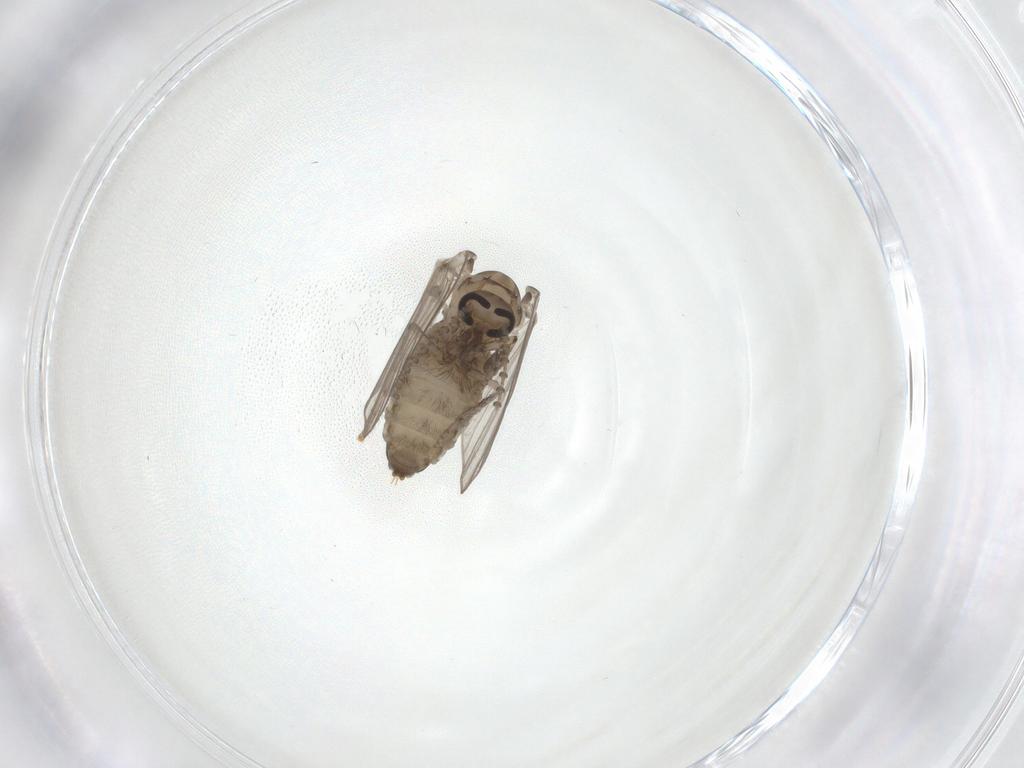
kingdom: Animalia
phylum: Arthropoda
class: Insecta
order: Diptera
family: Psychodidae
